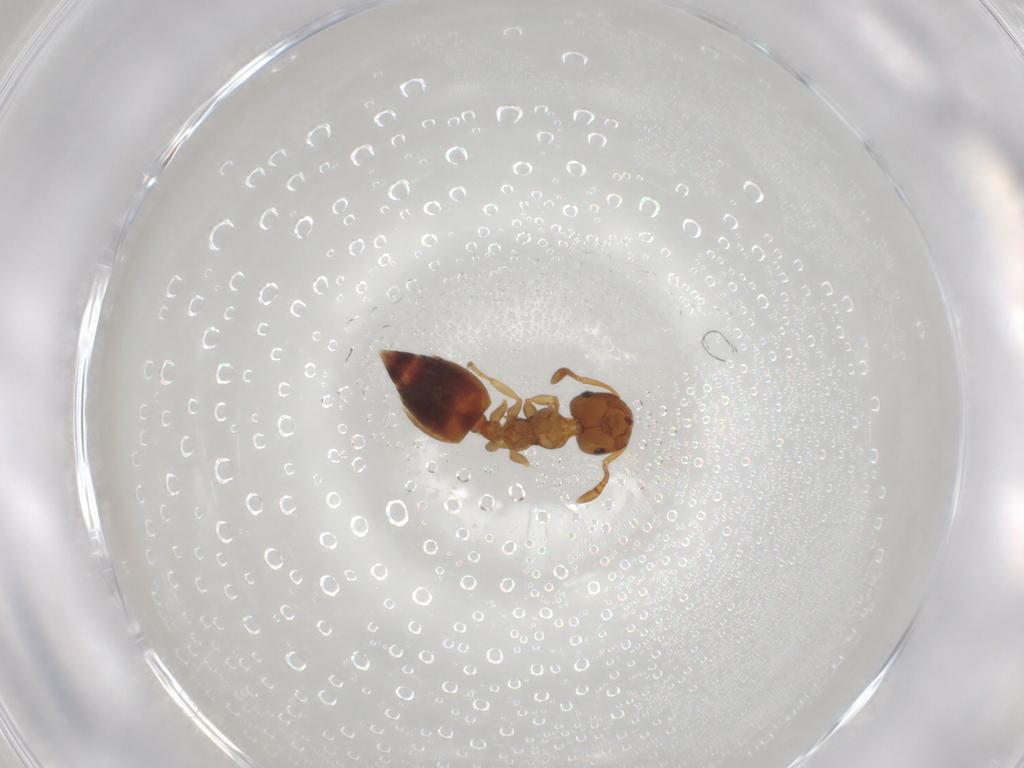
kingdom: Animalia
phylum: Arthropoda
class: Insecta
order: Hymenoptera
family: Formicidae
